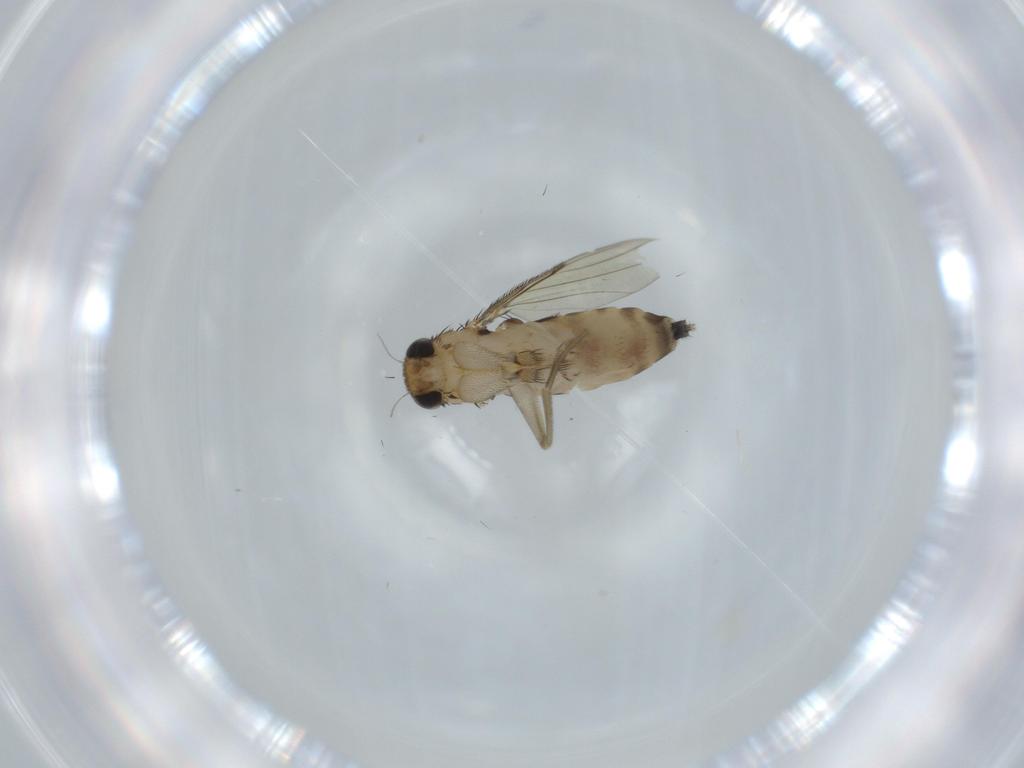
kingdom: Animalia
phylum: Arthropoda
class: Insecta
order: Diptera
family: Phoridae
